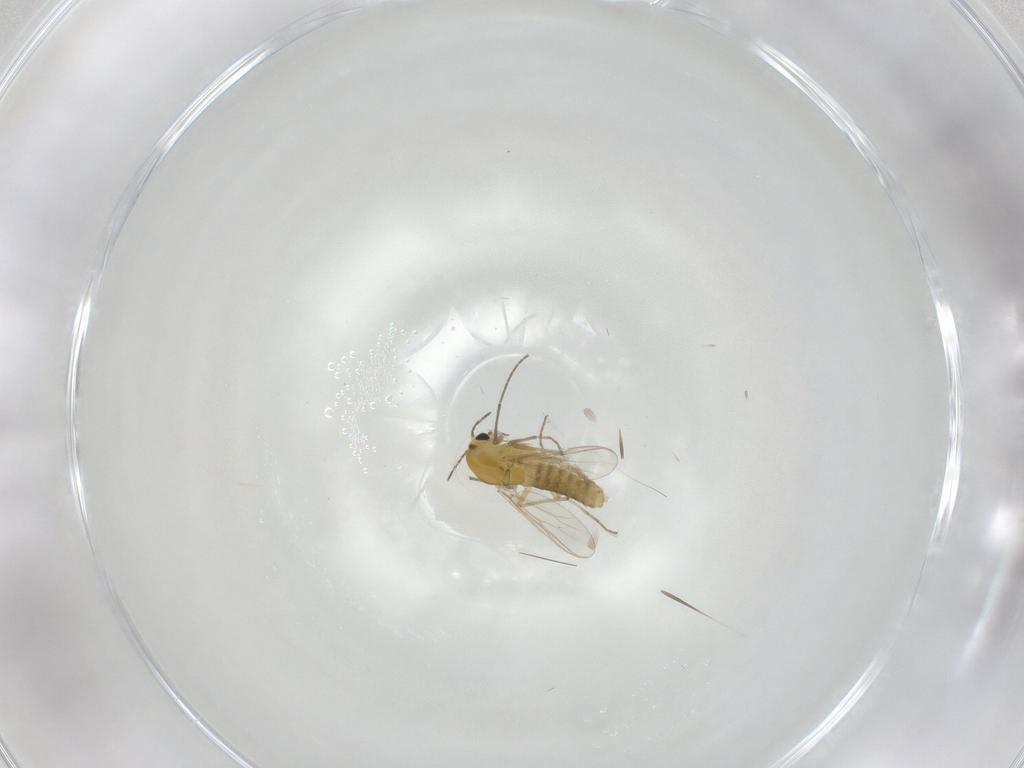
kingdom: Animalia
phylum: Arthropoda
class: Insecta
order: Diptera
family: Chironomidae
